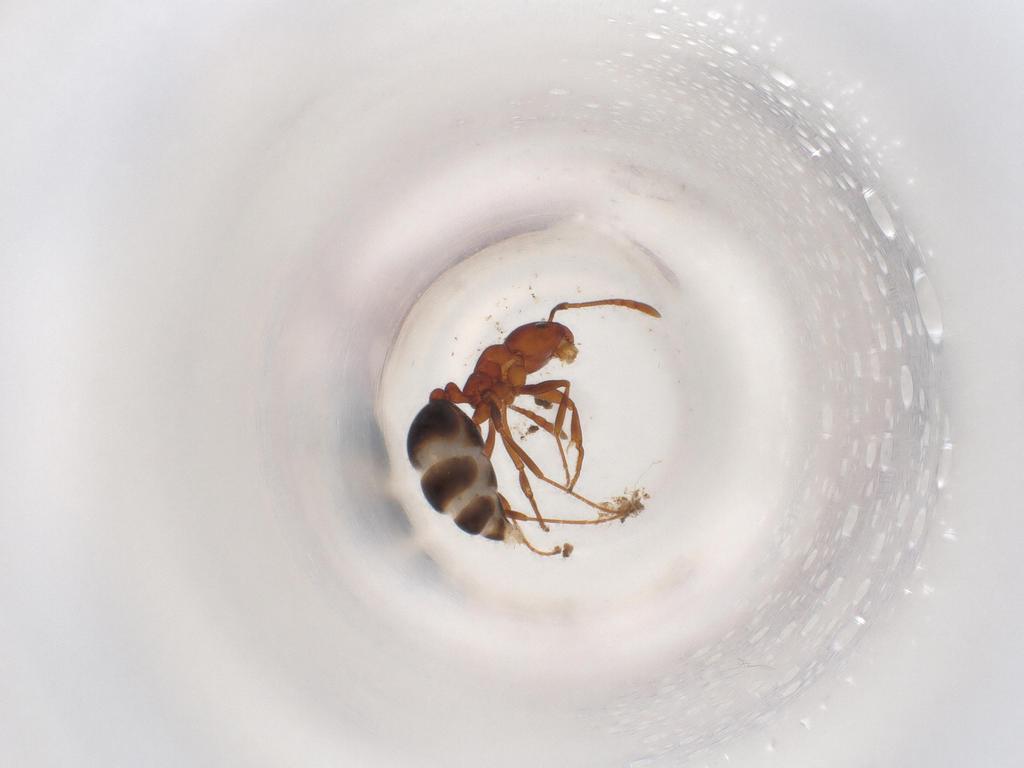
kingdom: Animalia
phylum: Arthropoda
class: Insecta
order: Hymenoptera
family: Formicidae
